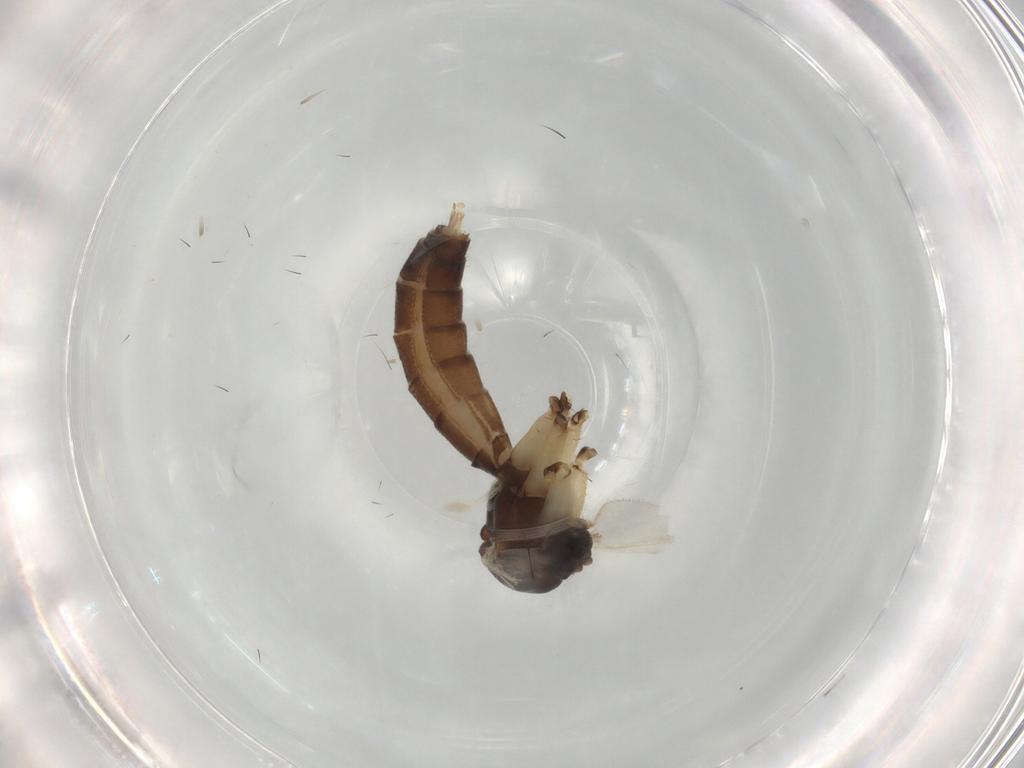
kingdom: Animalia
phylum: Arthropoda
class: Insecta
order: Diptera
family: Mycetophilidae
